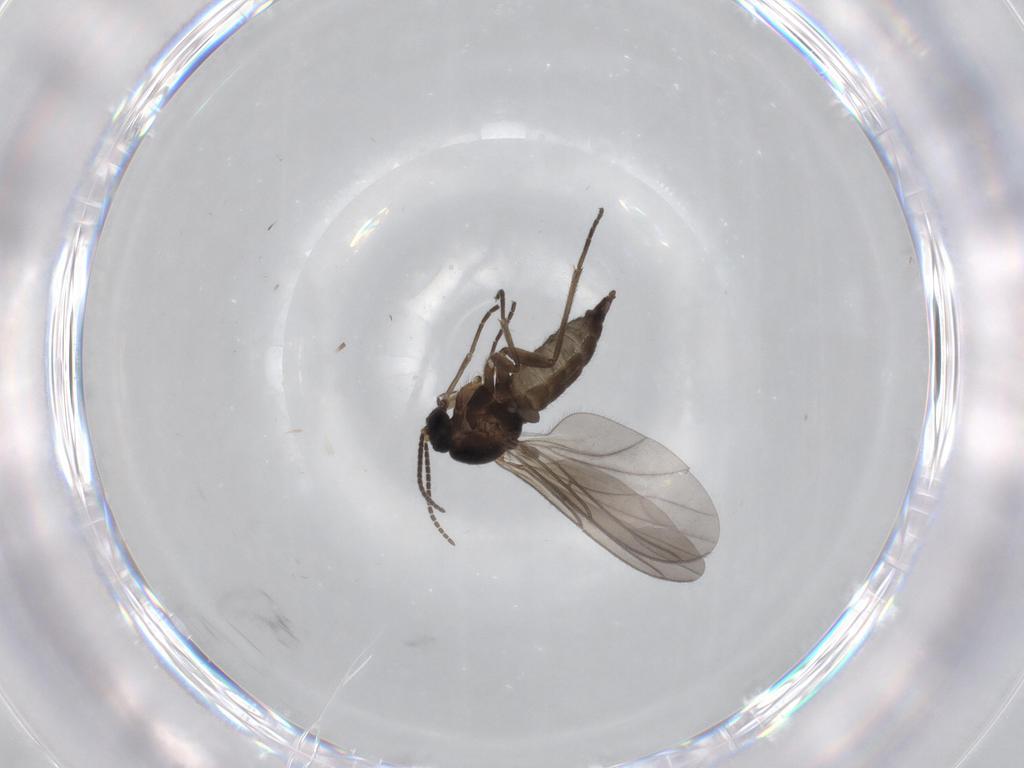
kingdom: Animalia
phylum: Arthropoda
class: Insecta
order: Diptera
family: Sciaridae
